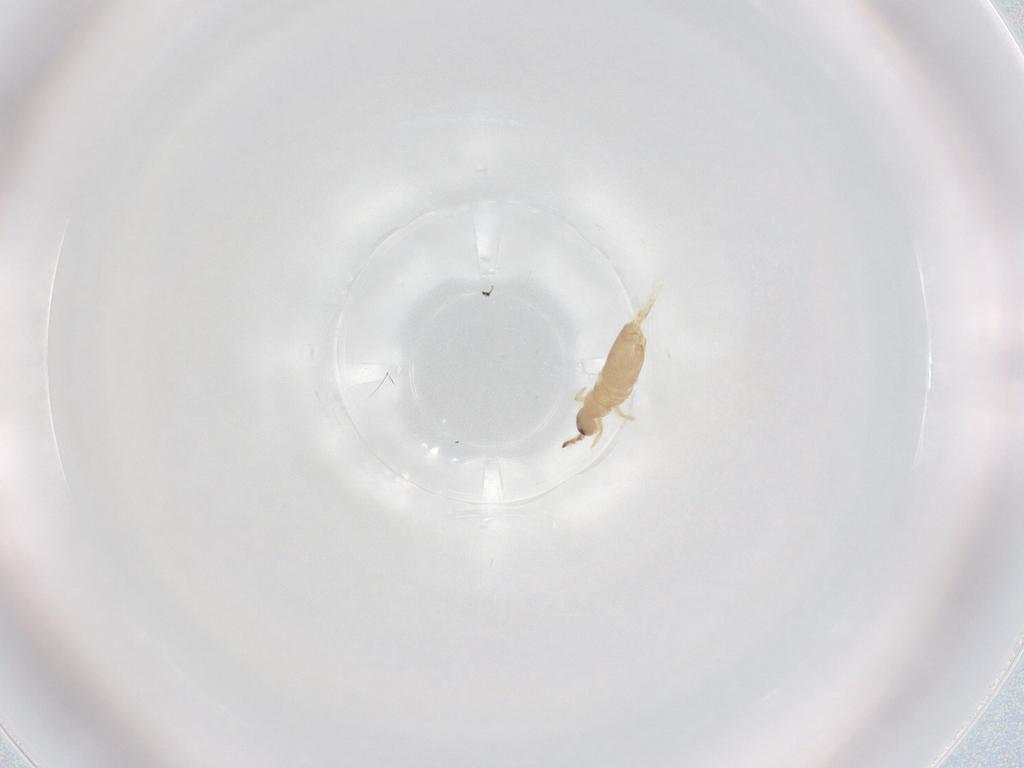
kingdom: Animalia
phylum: Arthropoda
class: Collembola
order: Entomobryomorpha
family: Entomobryidae
